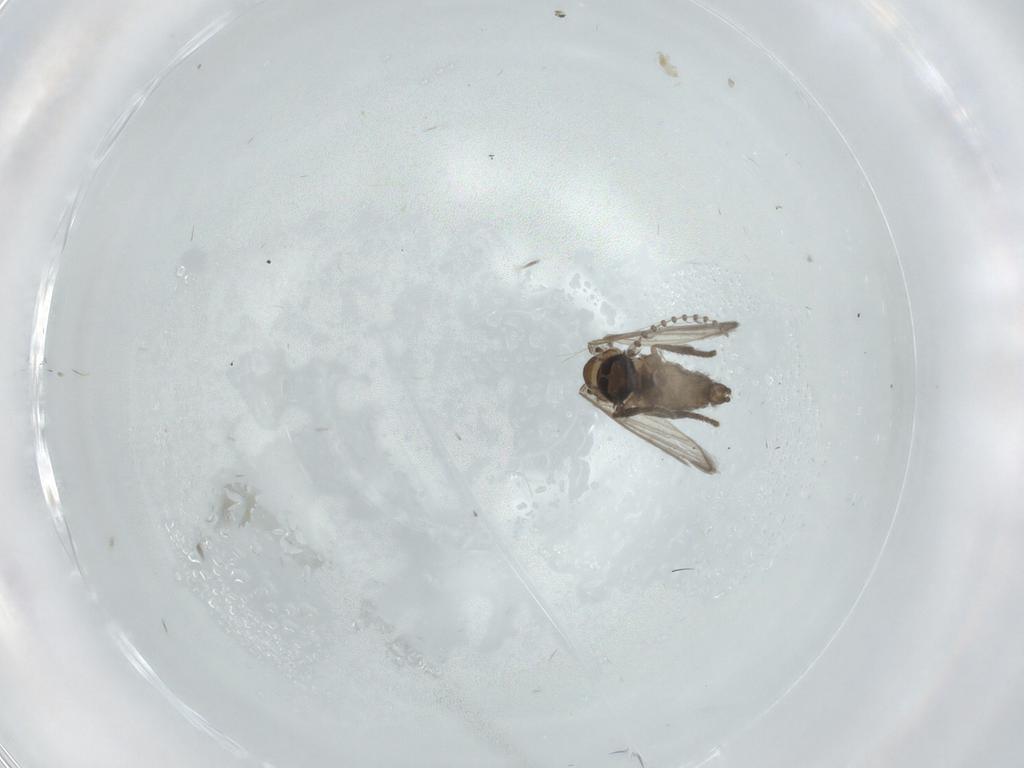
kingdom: Animalia
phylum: Arthropoda
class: Insecta
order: Diptera
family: Psychodidae
